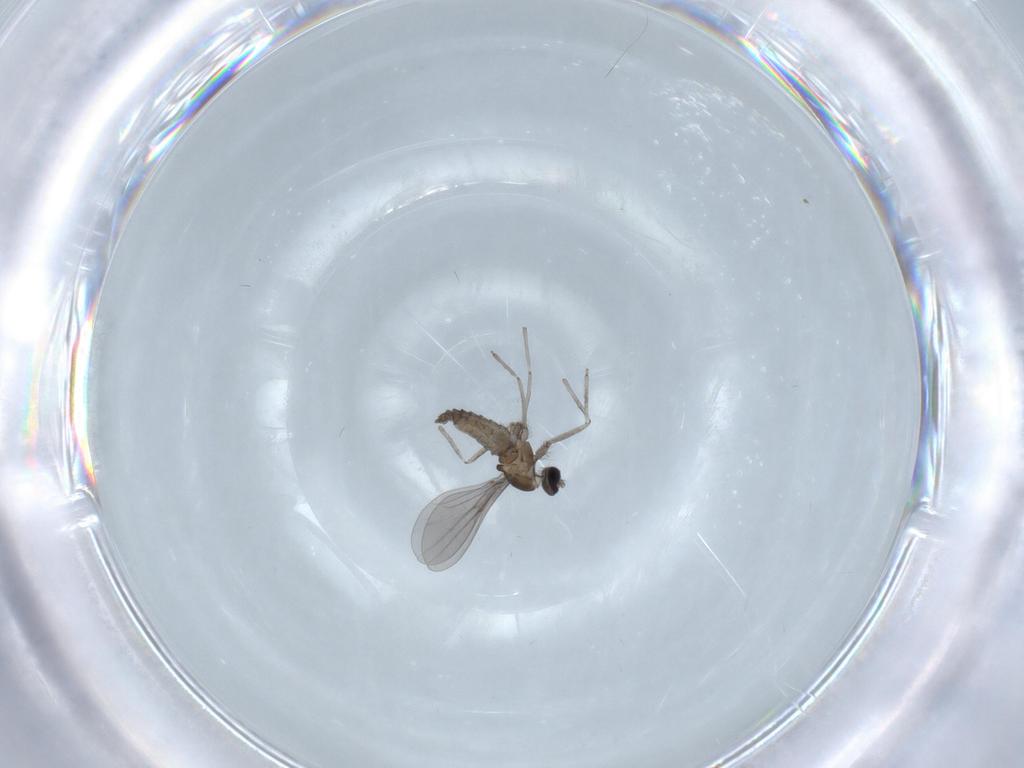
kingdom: Animalia
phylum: Arthropoda
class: Insecta
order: Diptera
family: Cecidomyiidae
